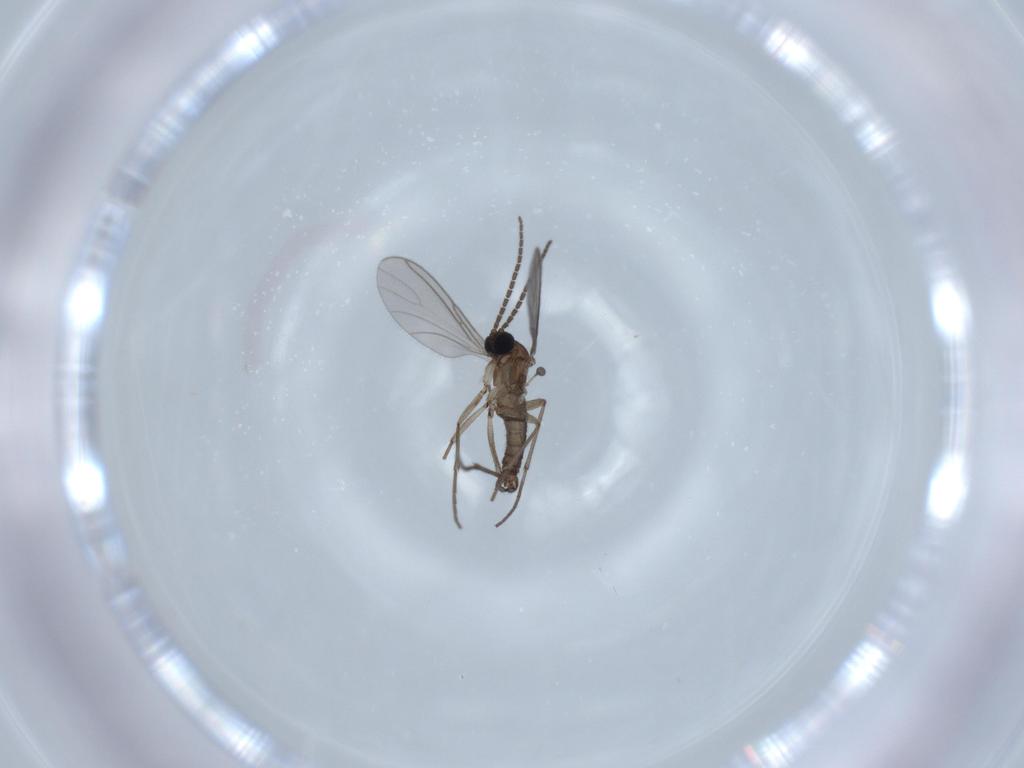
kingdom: Animalia
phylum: Arthropoda
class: Insecta
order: Diptera
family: Sciaridae
